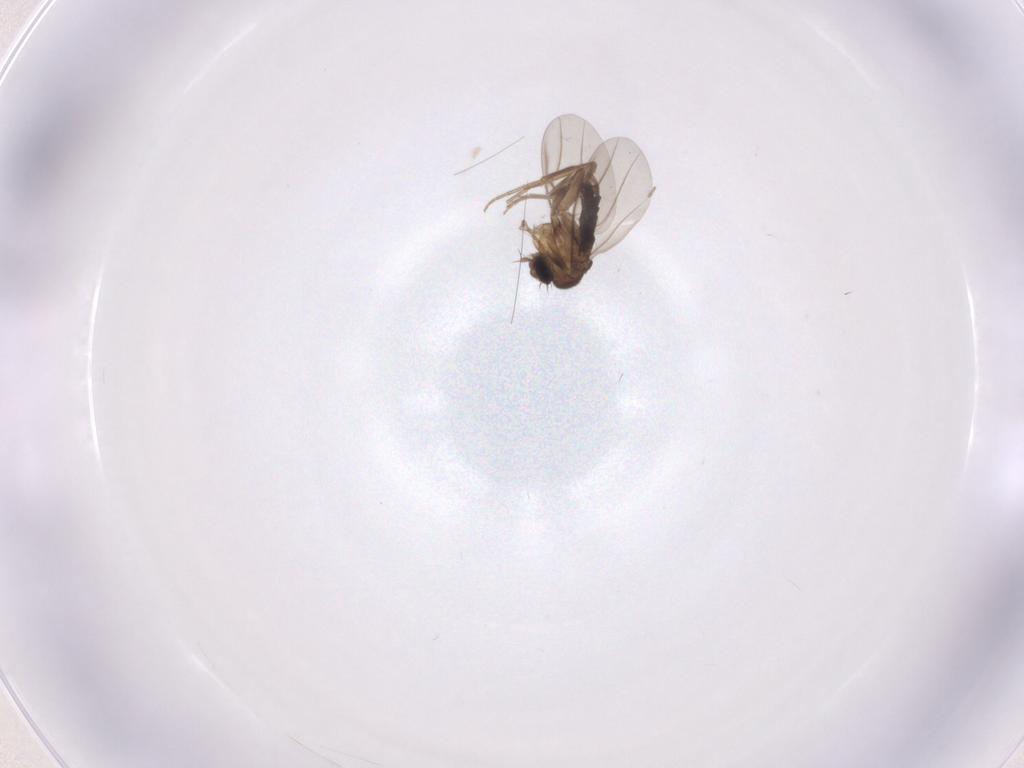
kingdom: Animalia
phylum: Arthropoda
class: Insecta
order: Diptera
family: Phoridae
